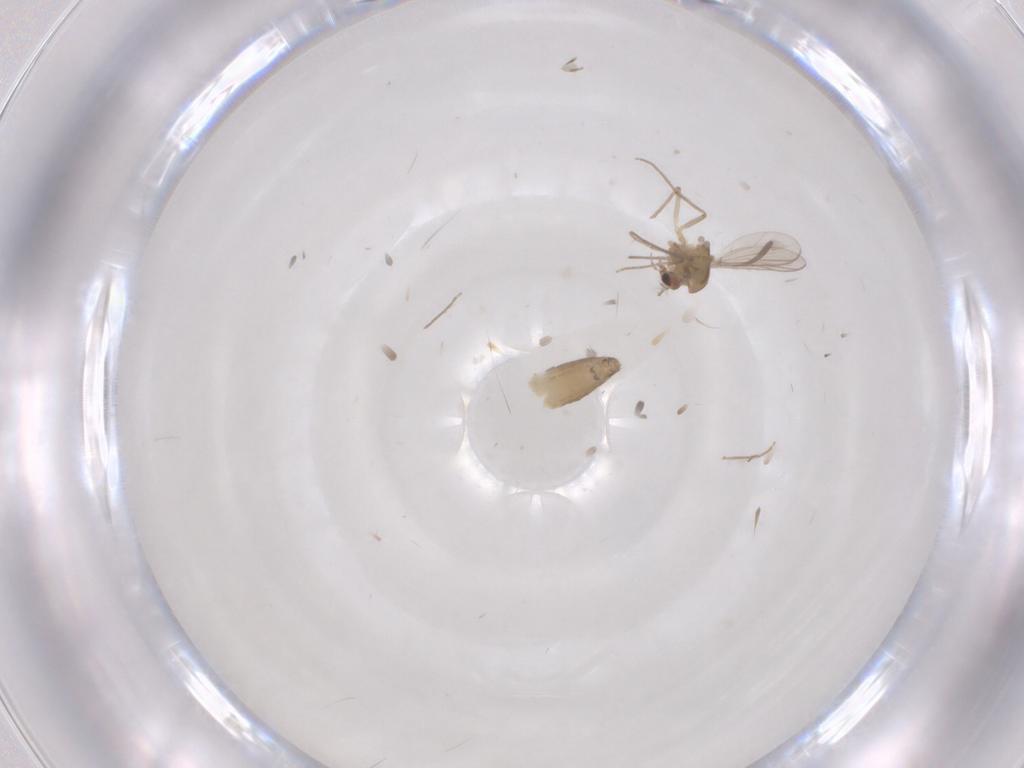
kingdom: Animalia
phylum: Arthropoda
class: Insecta
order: Diptera
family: Chironomidae
